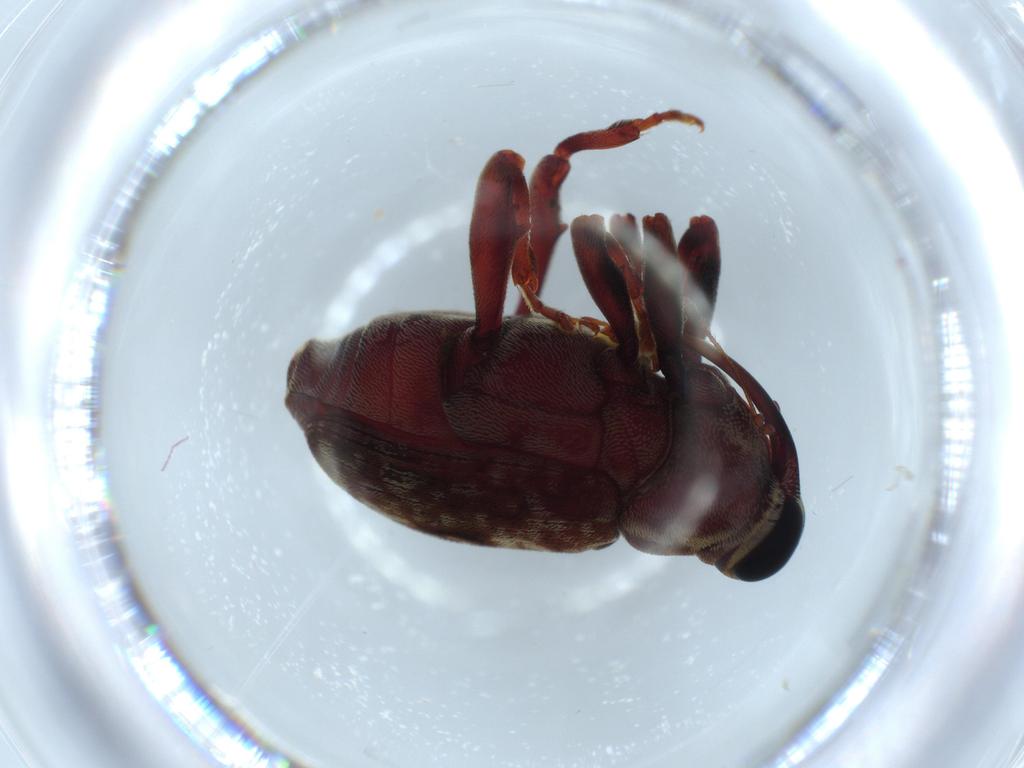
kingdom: Animalia
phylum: Arthropoda
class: Insecta
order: Coleoptera
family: Curculionidae
